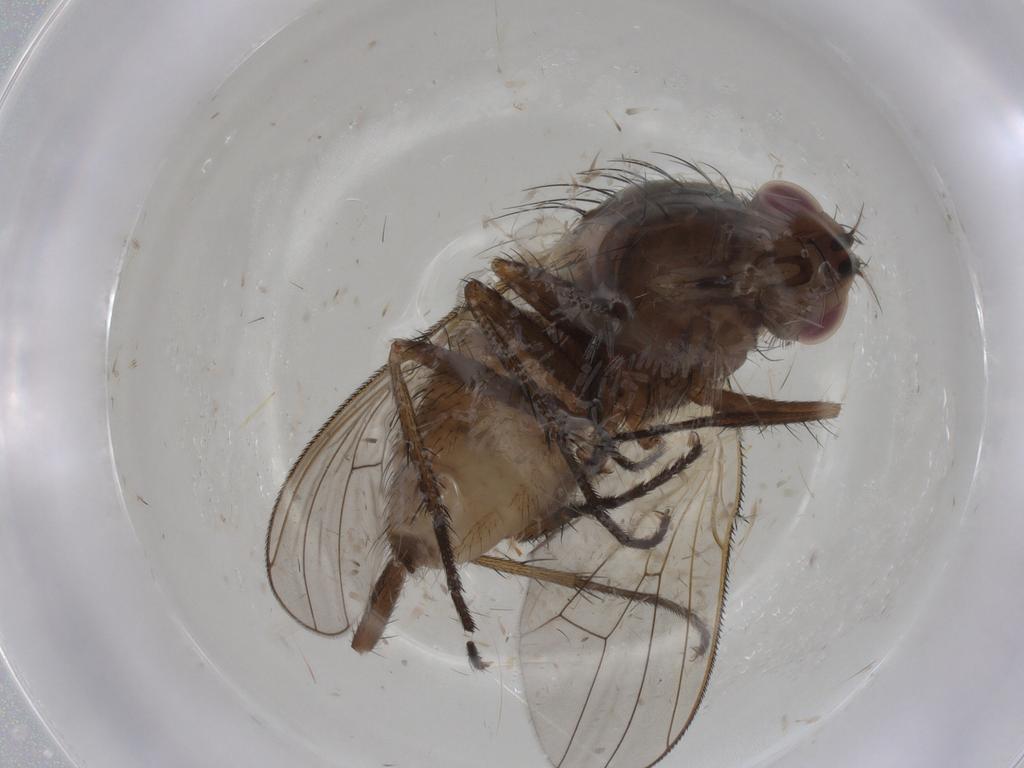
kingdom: Animalia
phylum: Arthropoda
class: Insecta
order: Diptera
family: Anthomyiidae
